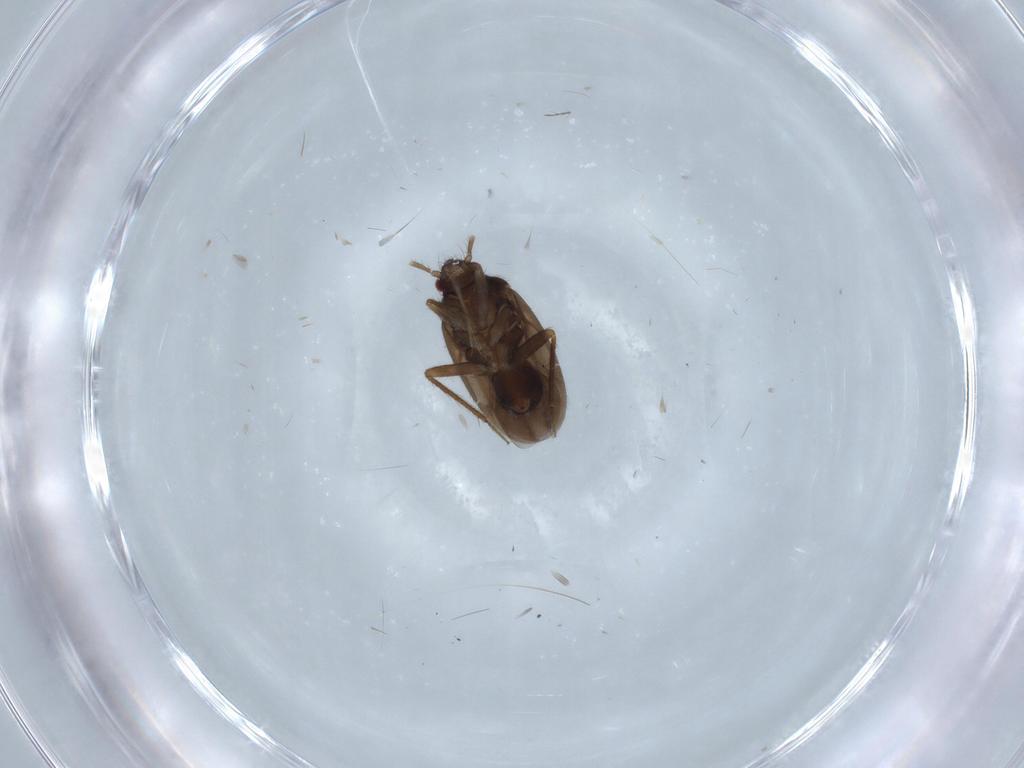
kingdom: Animalia
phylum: Arthropoda
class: Insecta
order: Hemiptera
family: Ceratocombidae
